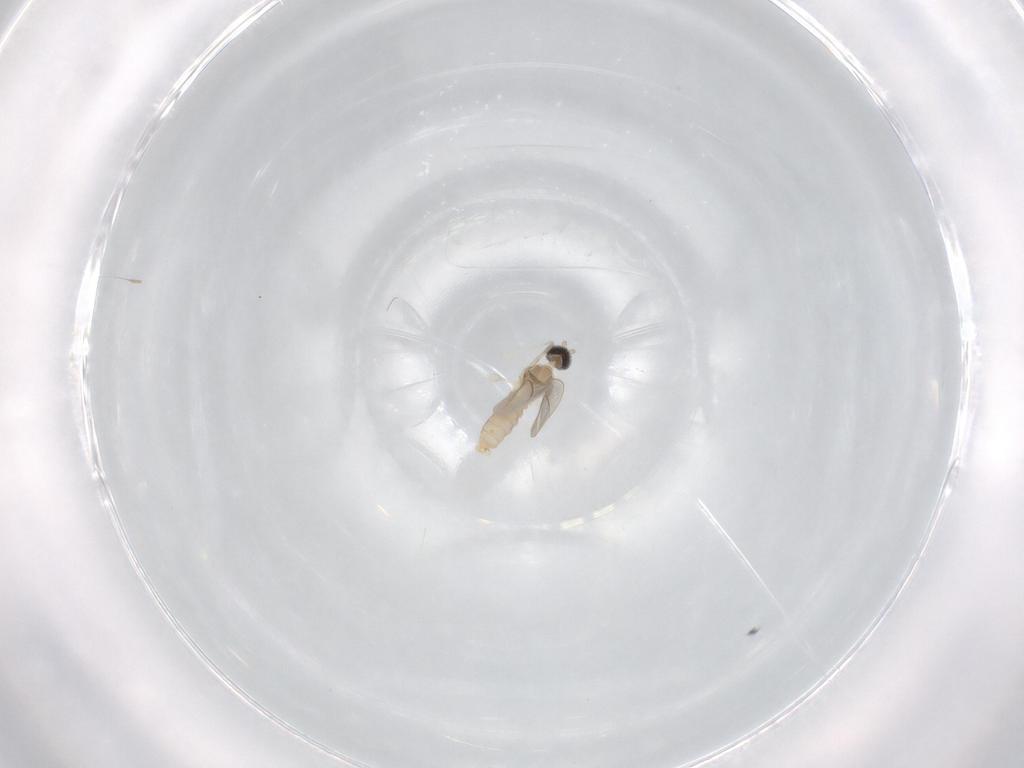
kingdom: Animalia
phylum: Arthropoda
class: Insecta
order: Diptera
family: Cecidomyiidae
